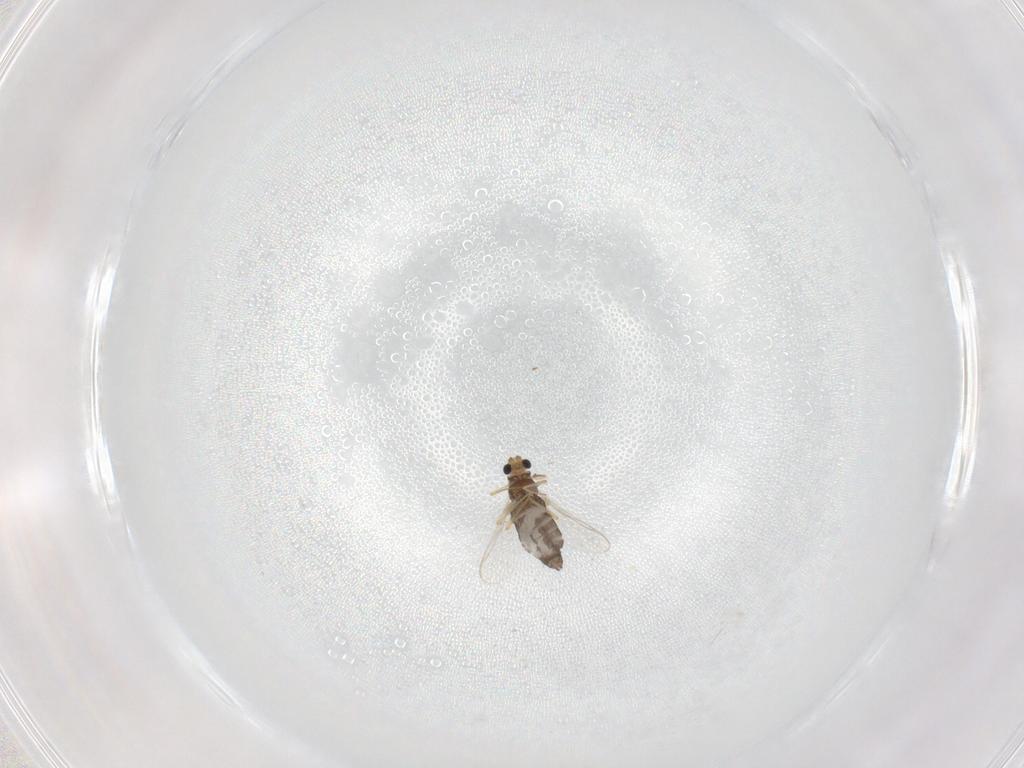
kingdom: Animalia
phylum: Arthropoda
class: Insecta
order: Diptera
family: Chironomidae
